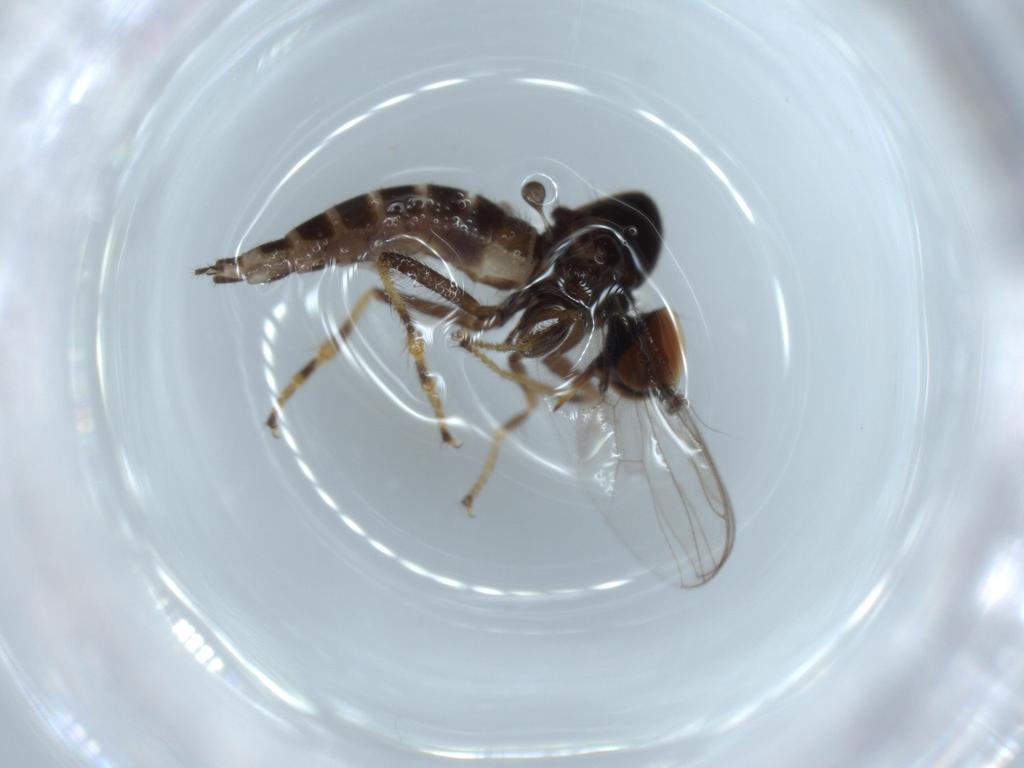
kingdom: Animalia
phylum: Arthropoda
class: Insecta
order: Diptera
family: Hybotidae
